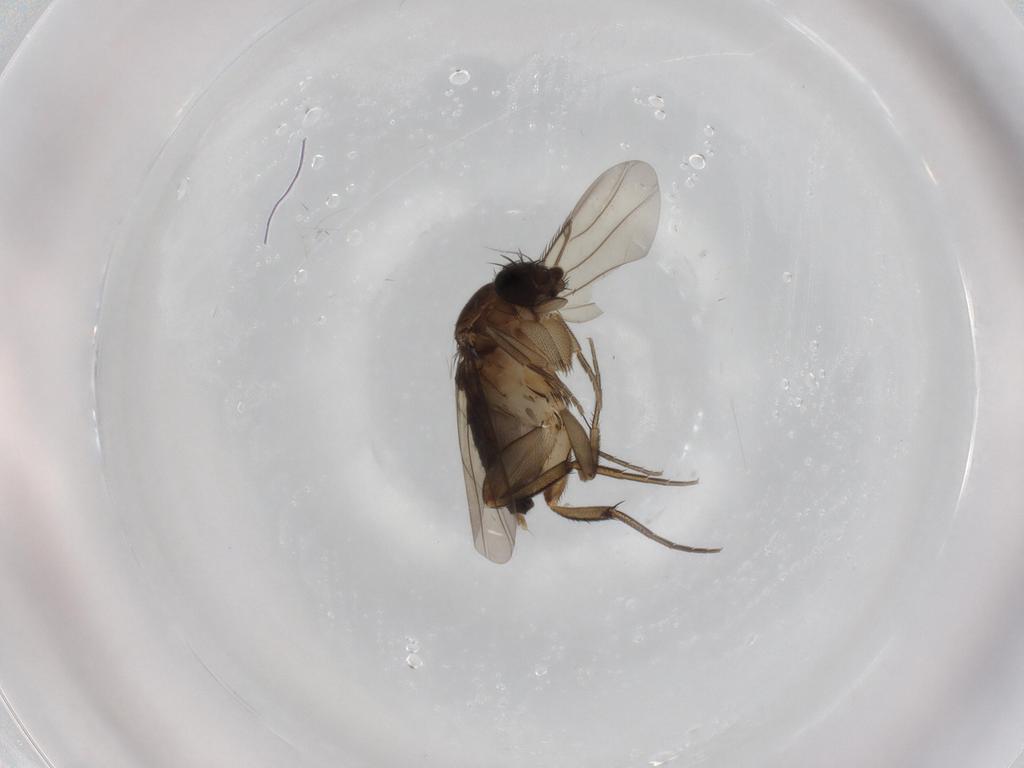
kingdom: Animalia
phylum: Arthropoda
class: Insecta
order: Diptera
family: Phoridae
